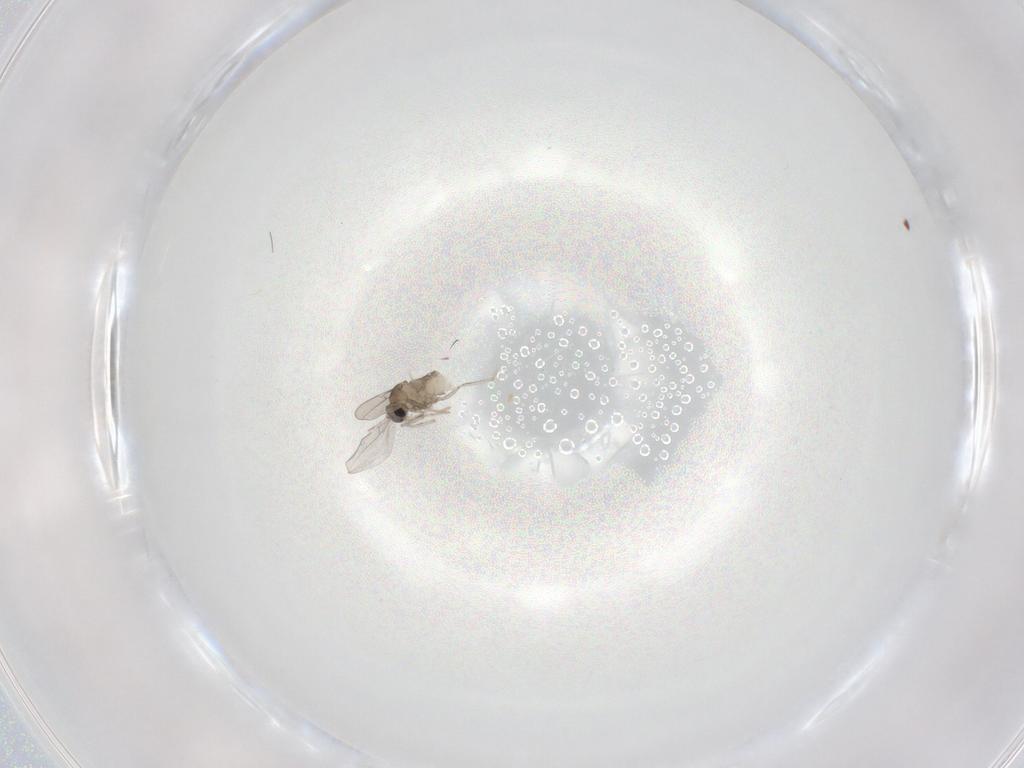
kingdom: Animalia
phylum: Arthropoda
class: Insecta
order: Diptera
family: Cecidomyiidae
